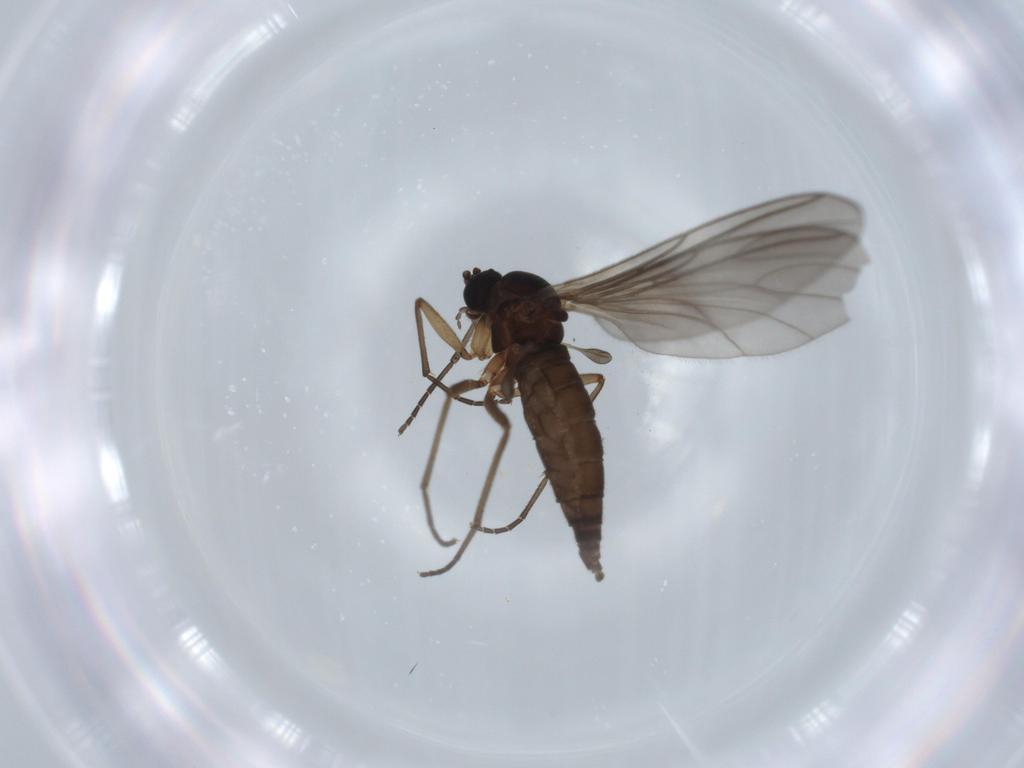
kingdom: Animalia
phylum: Arthropoda
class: Insecta
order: Diptera
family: Sciaridae
